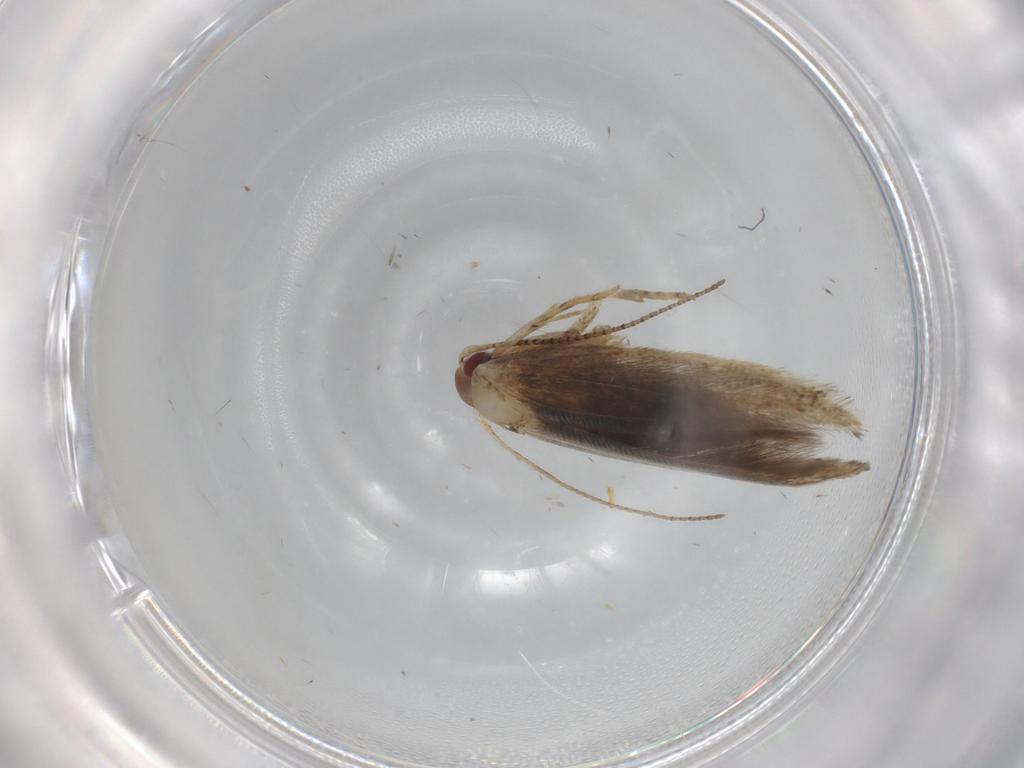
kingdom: Animalia
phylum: Arthropoda
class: Insecta
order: Lepidoptera
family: Cosmopterigidae
